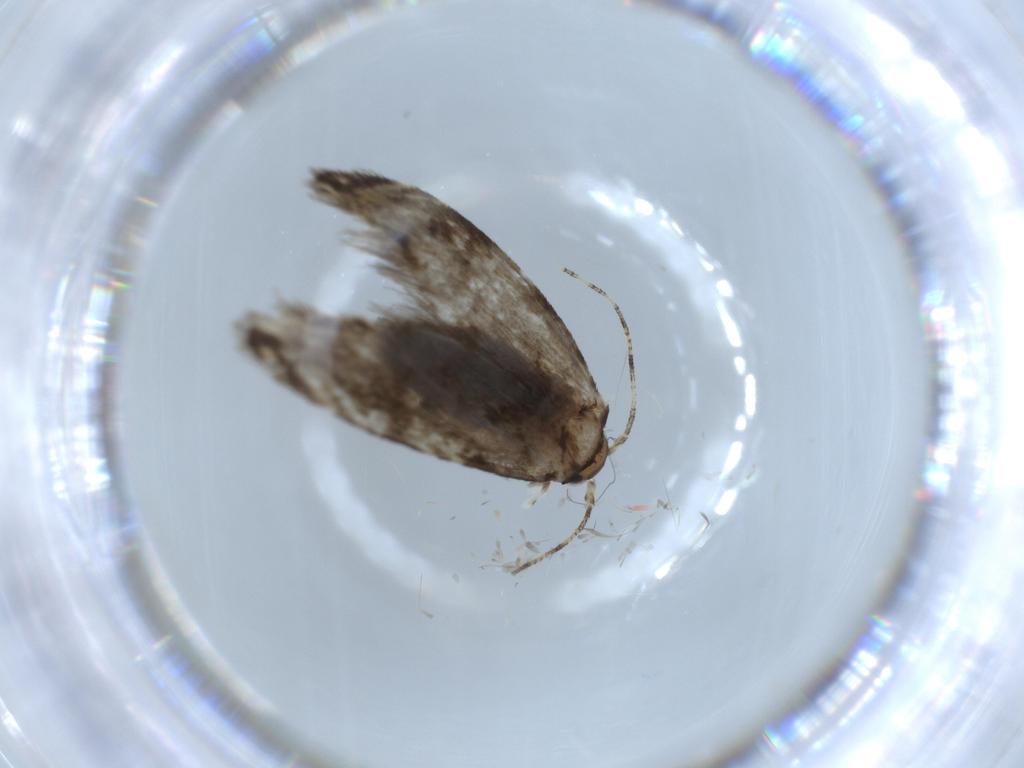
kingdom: Animalia
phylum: Arthropoda
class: Insecta
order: Lepidoptera
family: Tineidae
